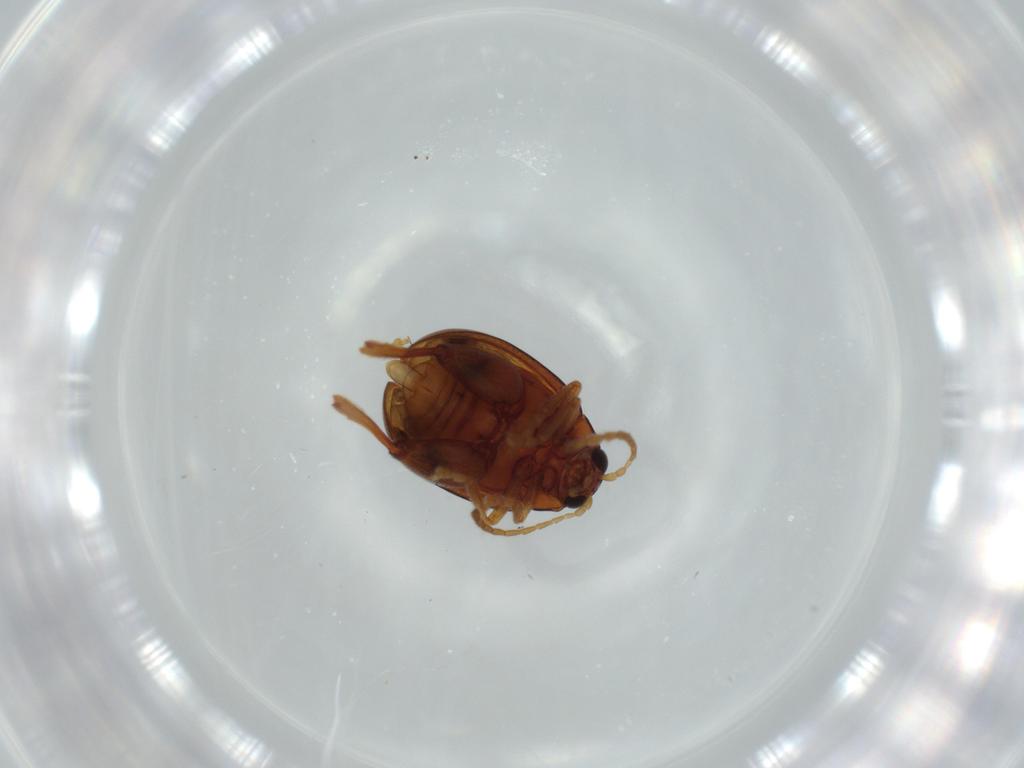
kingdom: Animalia
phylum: Arthropoda
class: Insecta
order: Coleoptera
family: Chrysomelidae
